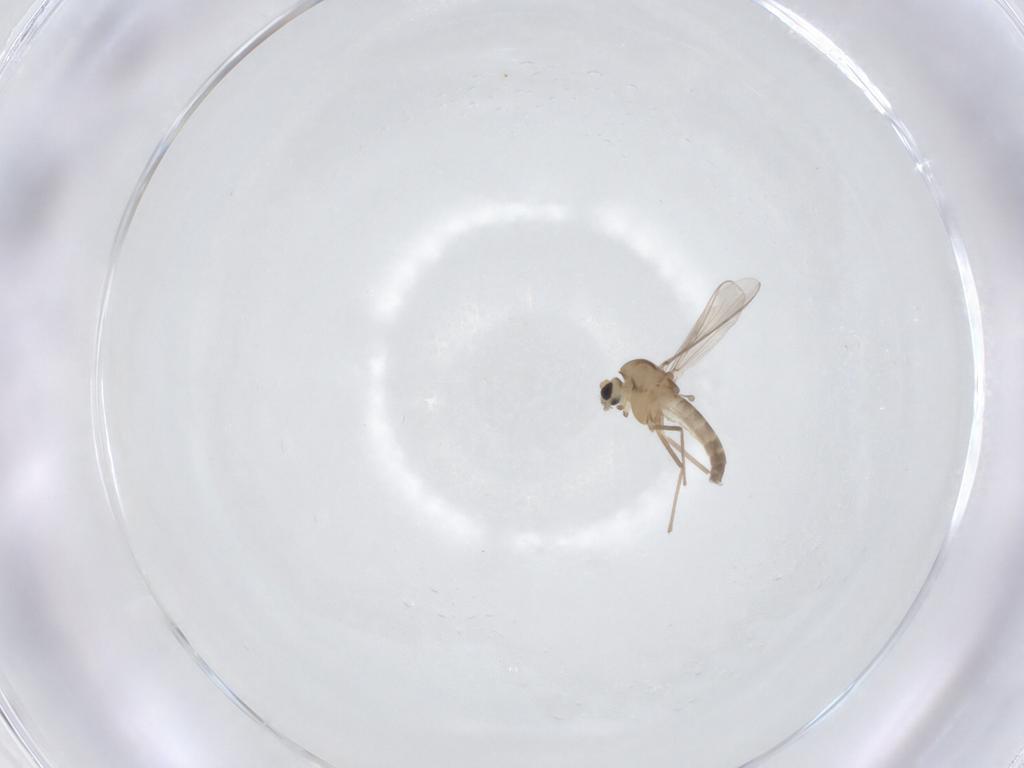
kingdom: Animalia
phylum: Arthropoda
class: Insecta
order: Diptera
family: Chironomidae
